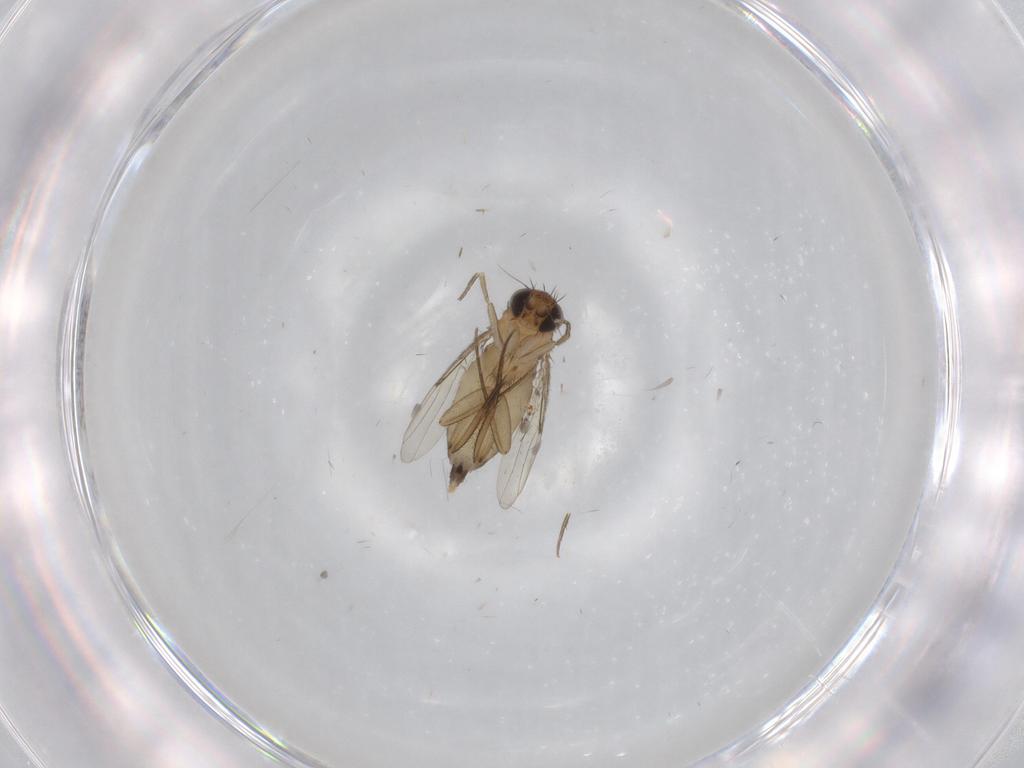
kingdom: Animalia
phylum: Arthropoda
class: Insecta
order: Diptera
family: Phoridae
